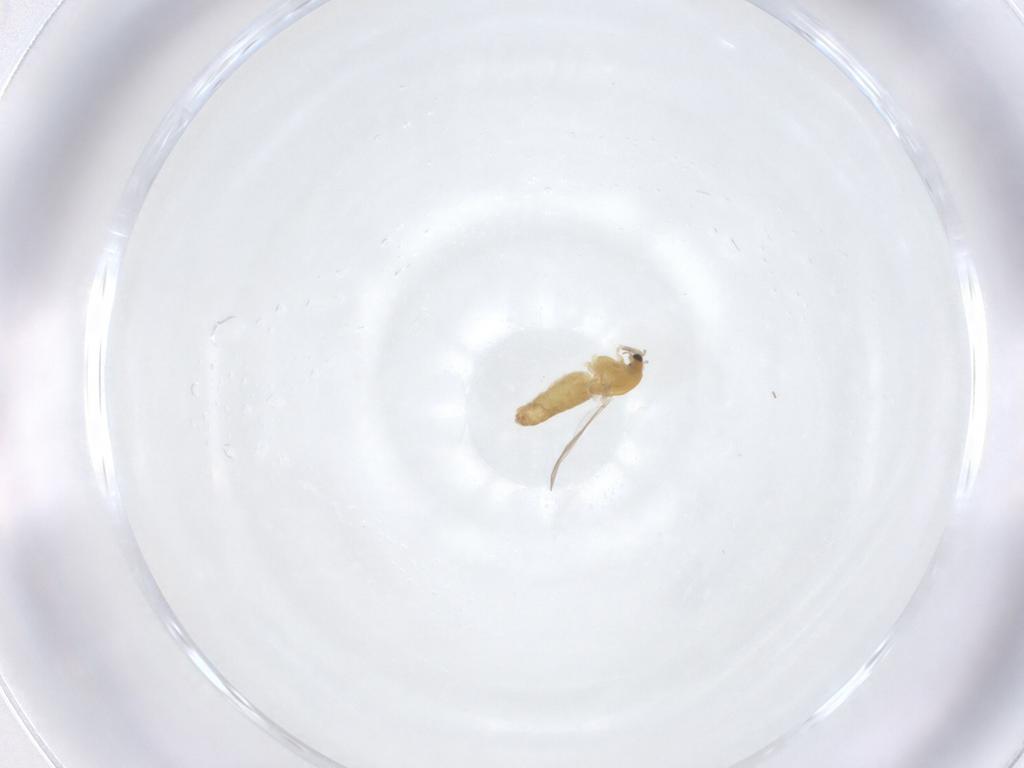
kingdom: Animalia
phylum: Arthropoda
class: Insecta
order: Diptera
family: Chironomidae
